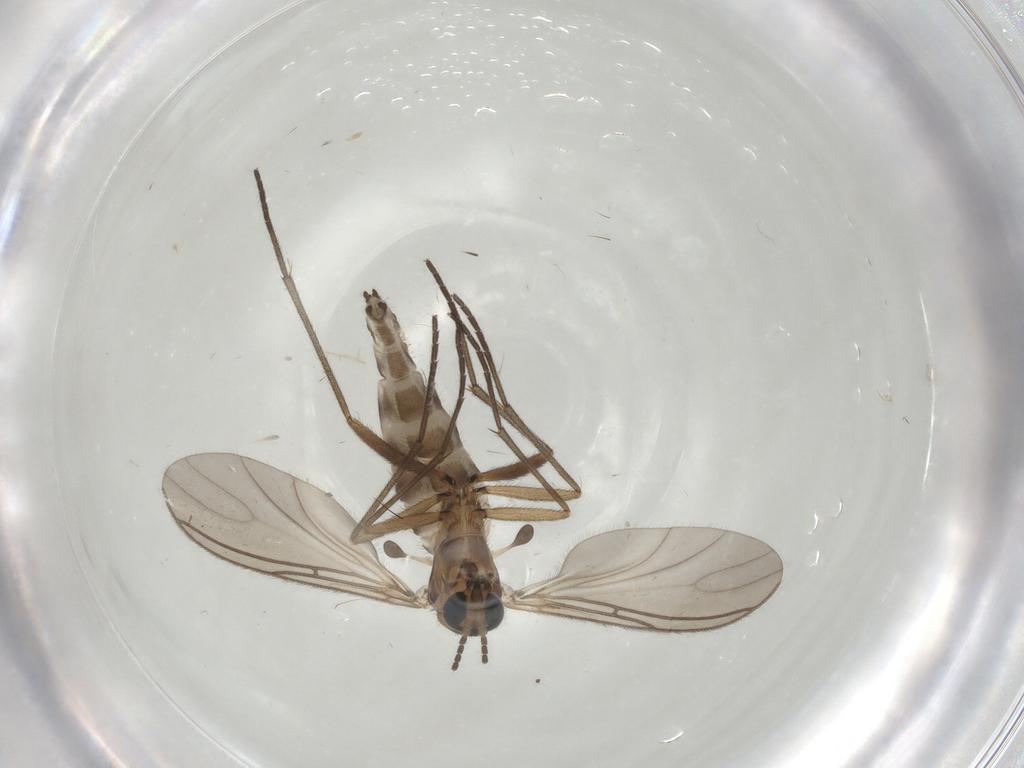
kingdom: Animalia
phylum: Arthropoda
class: Insecta
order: Diptera
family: Sciaridae
